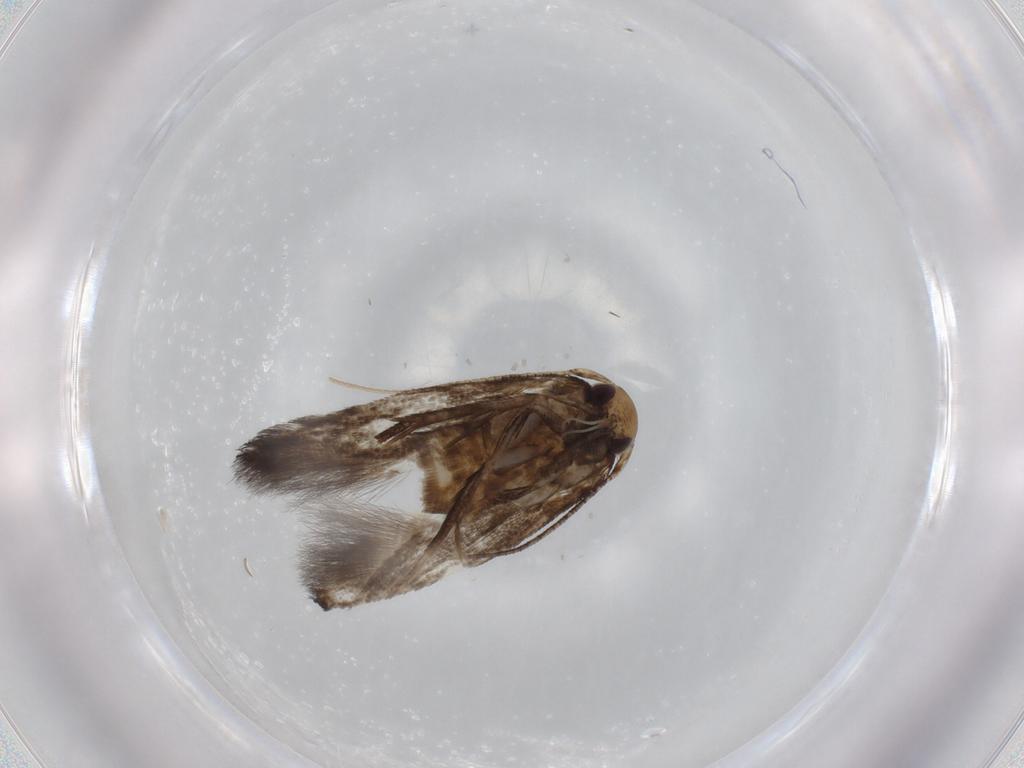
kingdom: Animalia
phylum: Arthropoda
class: Insecta
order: Lepidoptera
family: Cosmopterigidae
